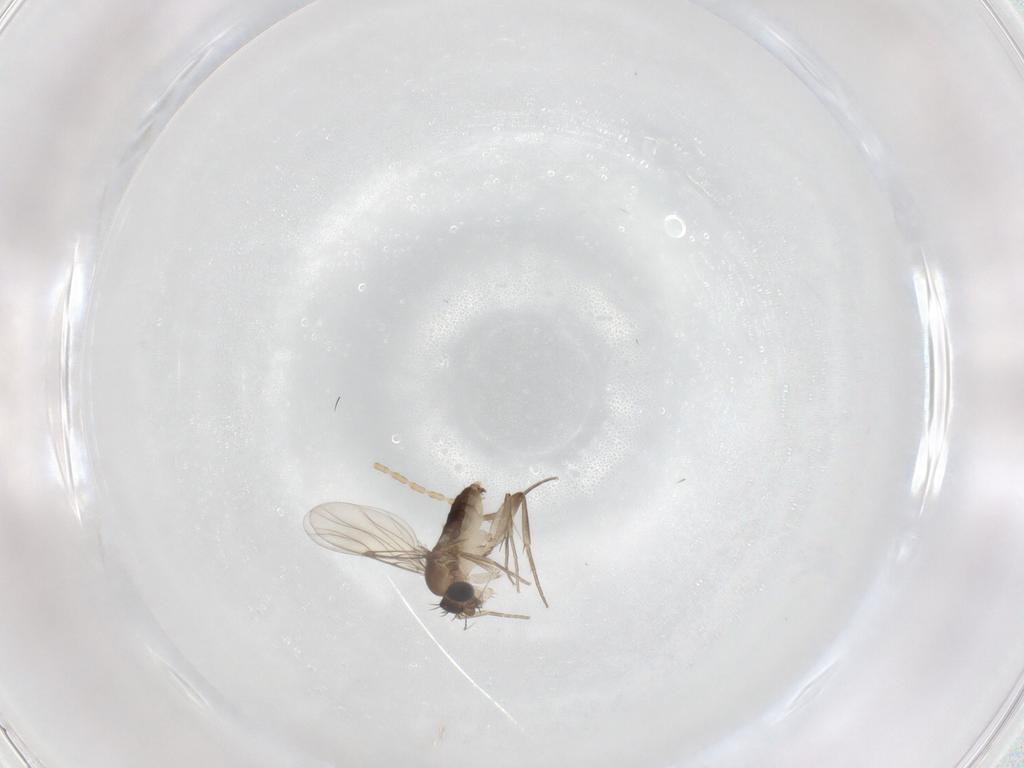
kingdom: Animalia
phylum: Arthropoda
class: Insecta
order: Diptera
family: Cecidomyiidae
